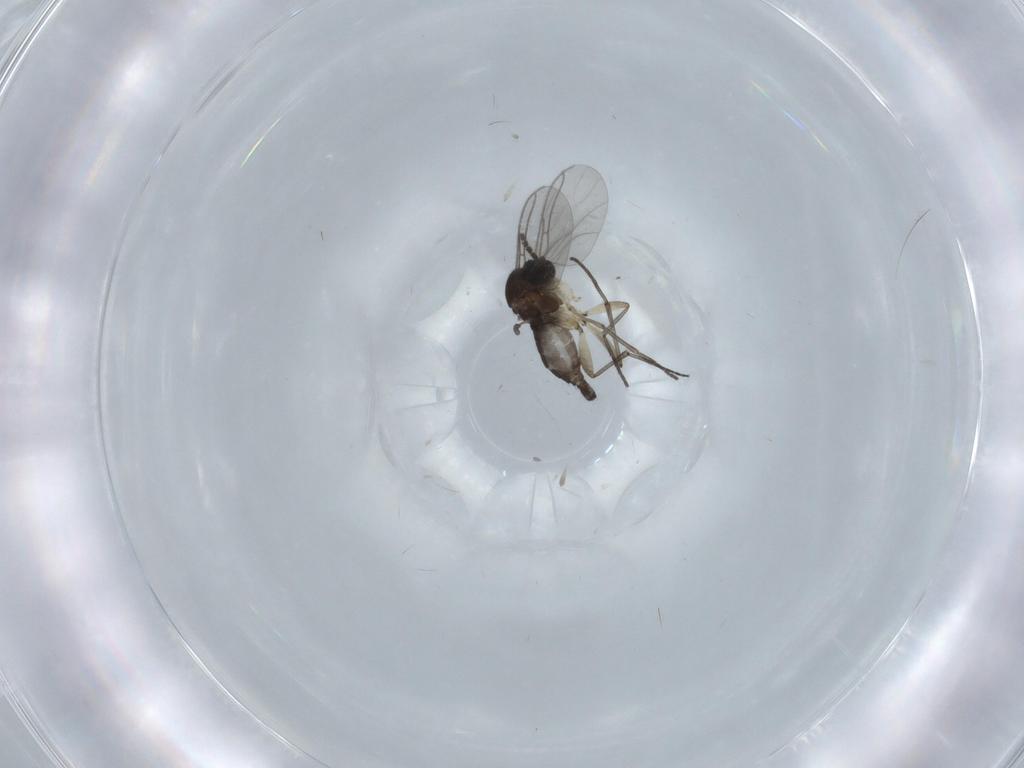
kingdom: Animalia
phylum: Arthropoda
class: Insecta
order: Diptera
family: Sciaridae
